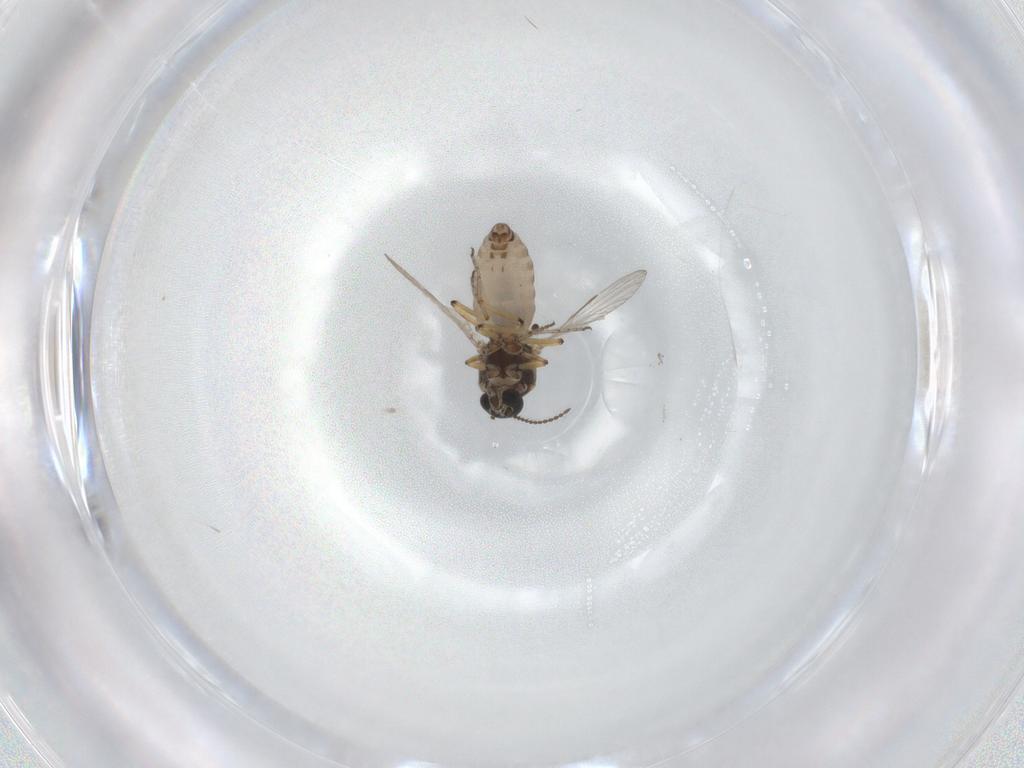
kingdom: Animalia
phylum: Arthropoda
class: Insecta
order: Diptera
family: Ceratopogonidae
